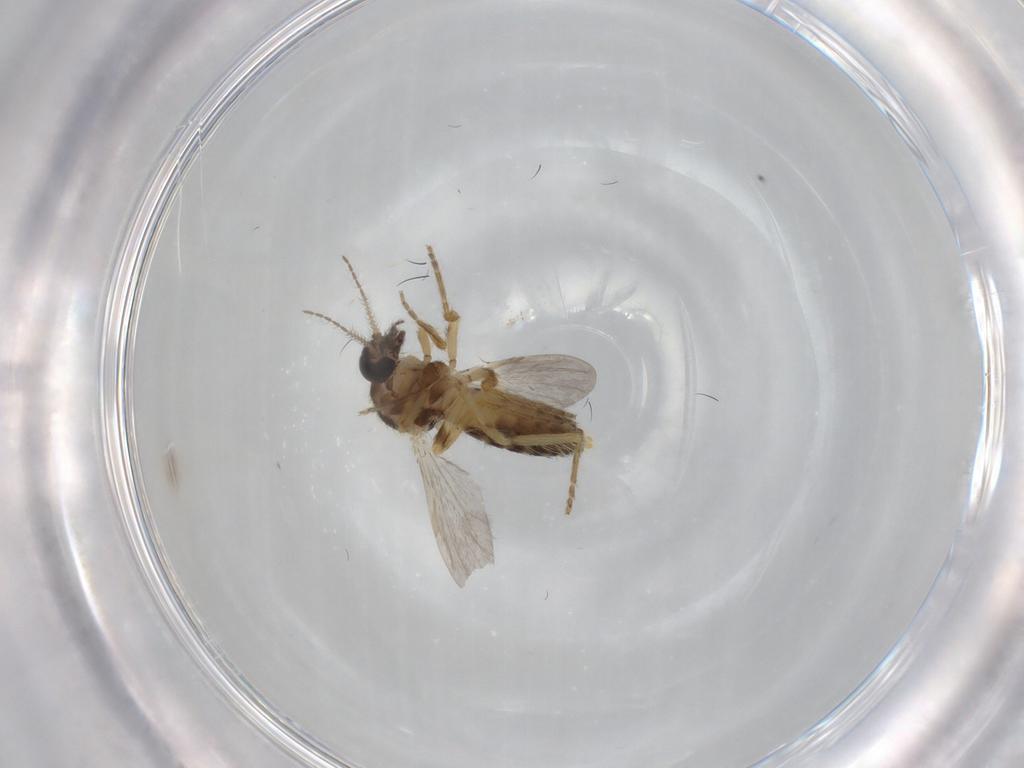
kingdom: Animalia
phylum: Arthropoda
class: Insecta
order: Diptera
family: Ceratopogonidae
